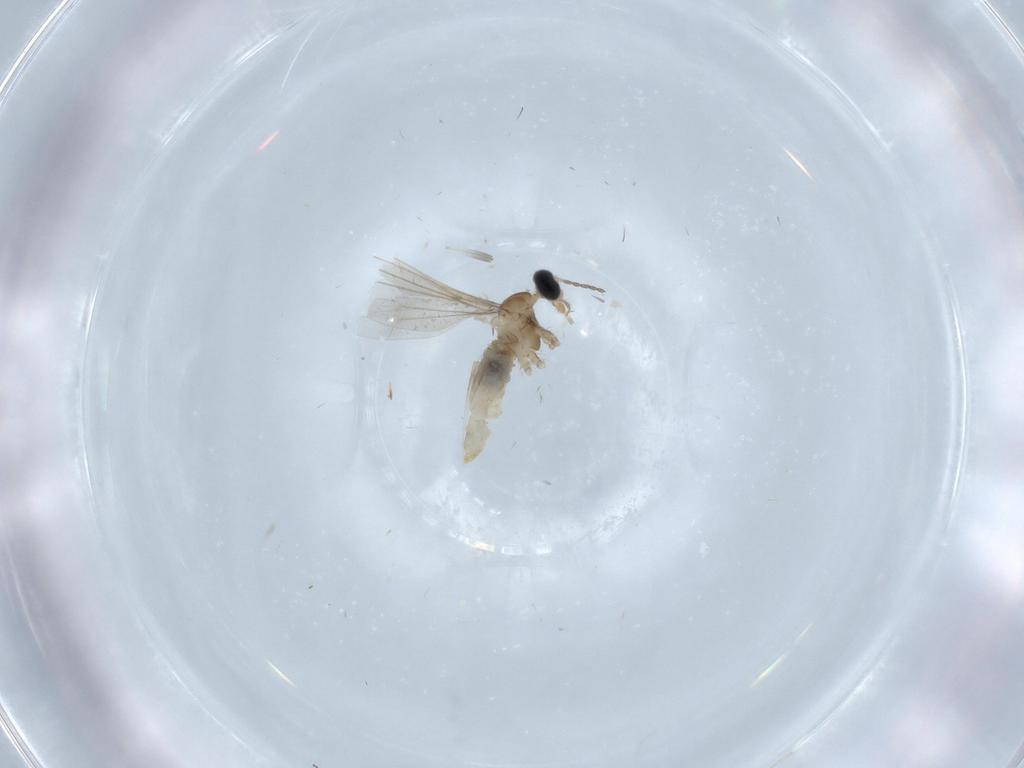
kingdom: Animalia
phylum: Arthropoda
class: Insecta
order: Diptera
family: Cecidomyiidae
